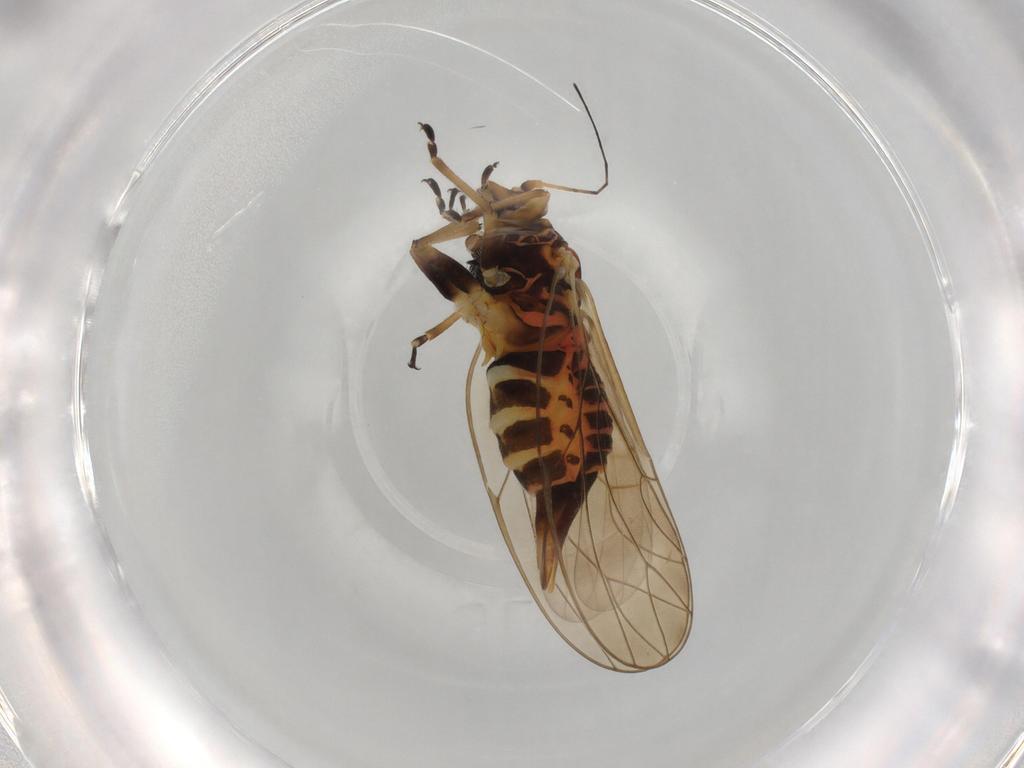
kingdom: Animalia
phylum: Arthropoda
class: Insecta
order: Hemiptera
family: Psyllidae
